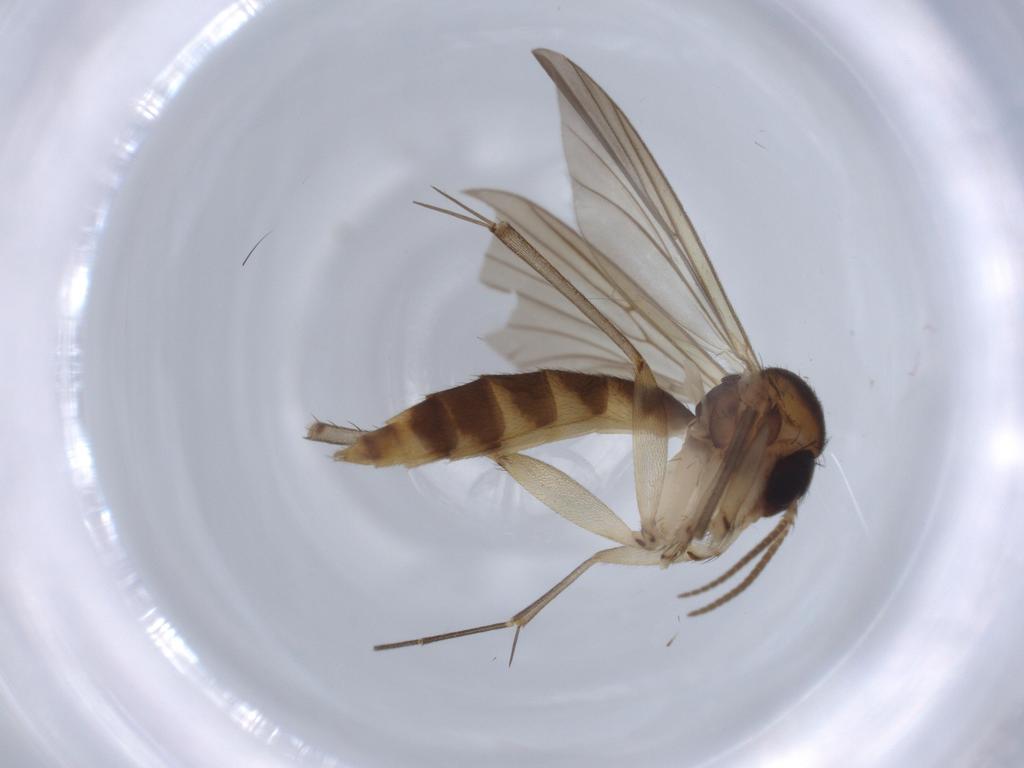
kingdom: Animalia
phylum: Arthropoda
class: Insecta
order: Diptera
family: Mycetophilidae
